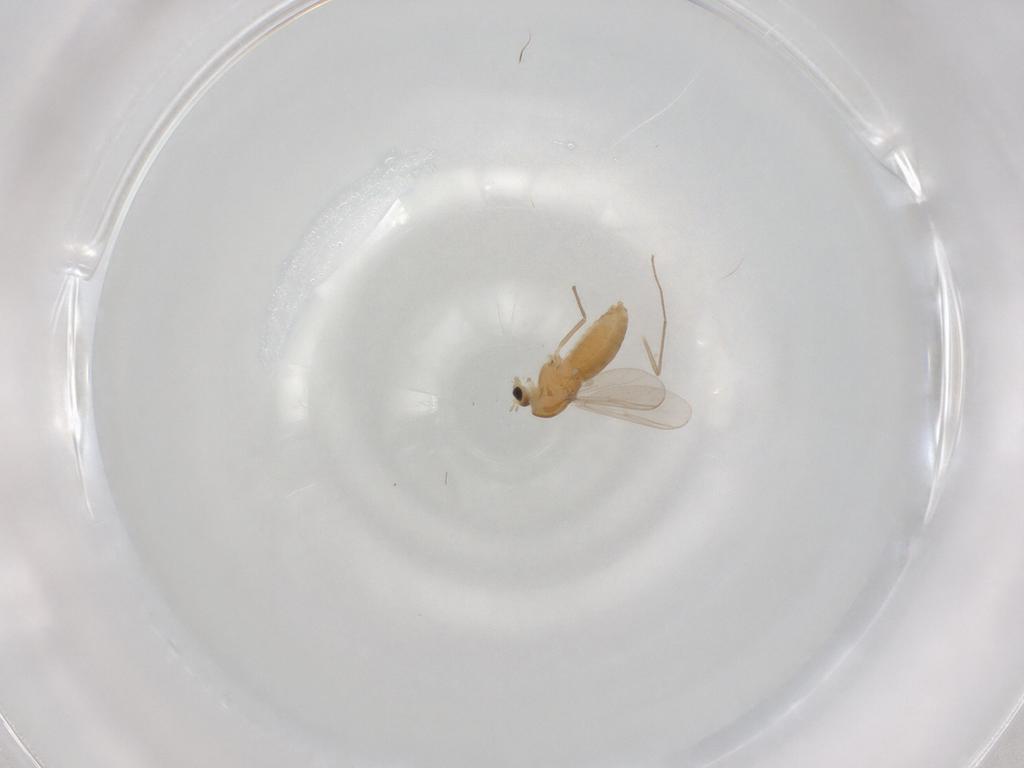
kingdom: Animalia
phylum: Arthropoda
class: Insecta
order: Diptera
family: Chironomidae
